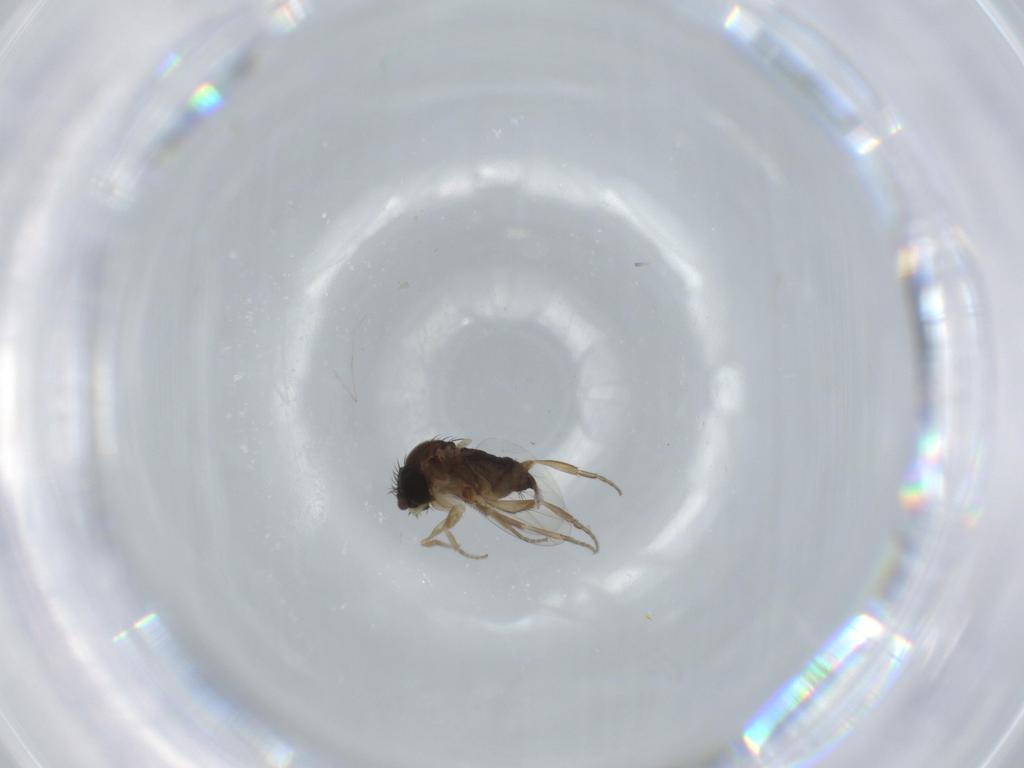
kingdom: Animalia
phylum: Arthropoda
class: Insecta
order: Diptera
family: Cecidomyiidae
